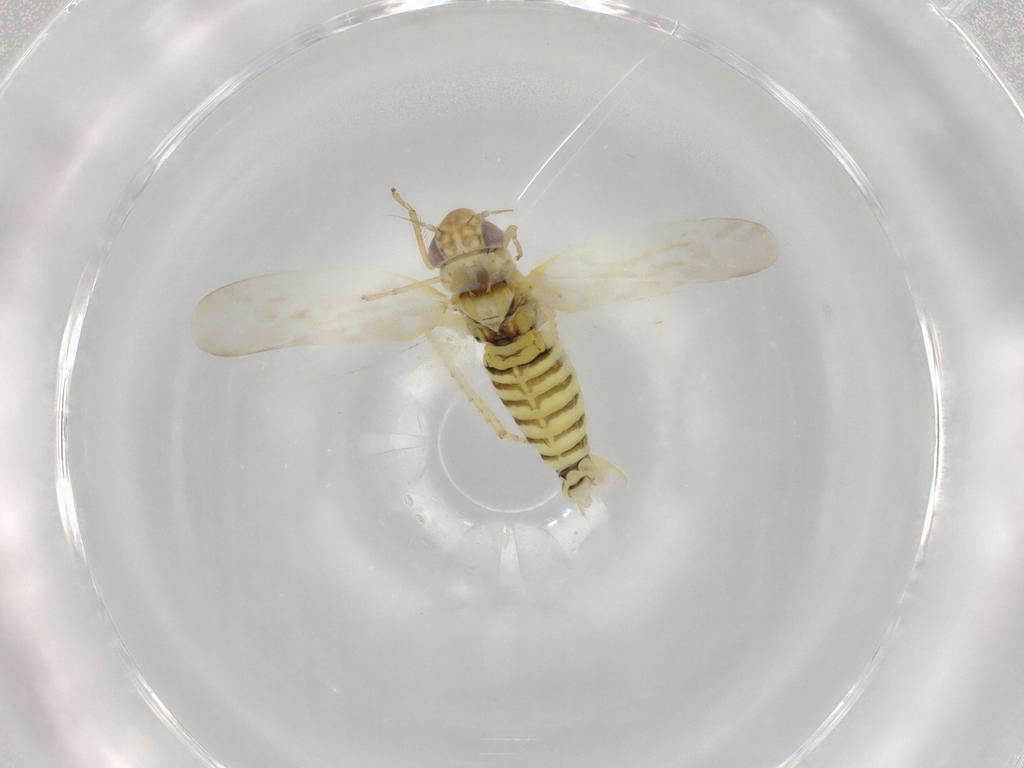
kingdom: Animalia
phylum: Arthropoda
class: Insecta
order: Hemiptera
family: Cicadellidae
